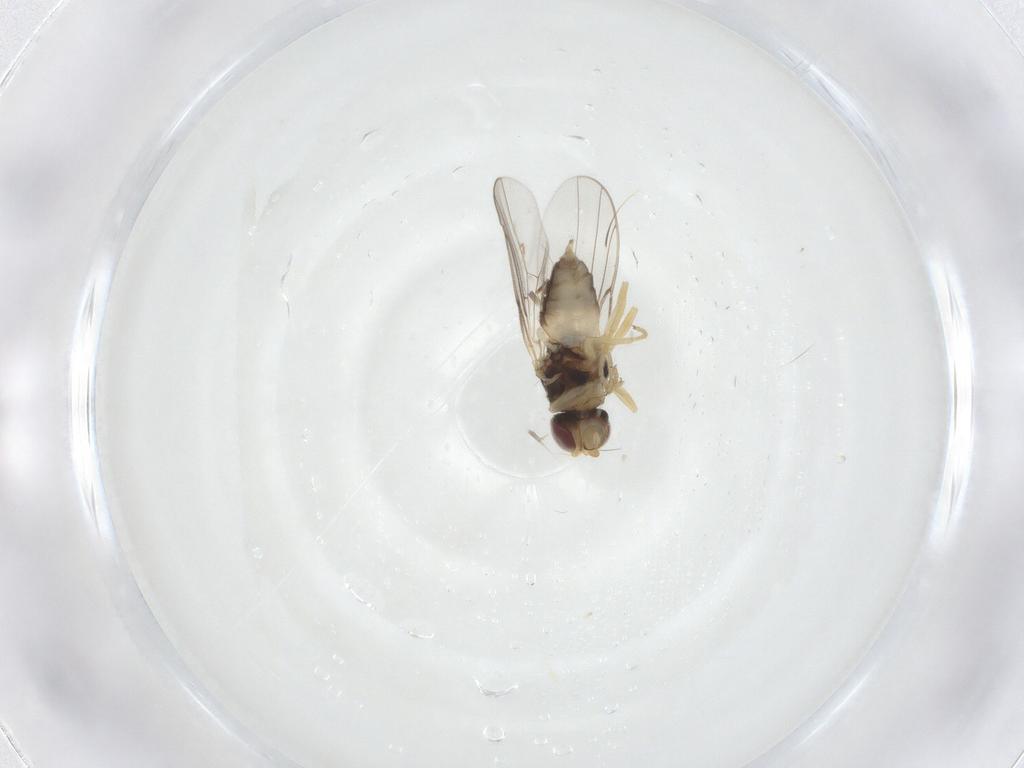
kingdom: Animalia
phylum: Arthropoda
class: Insecta
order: Diptera
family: Chloropidae
